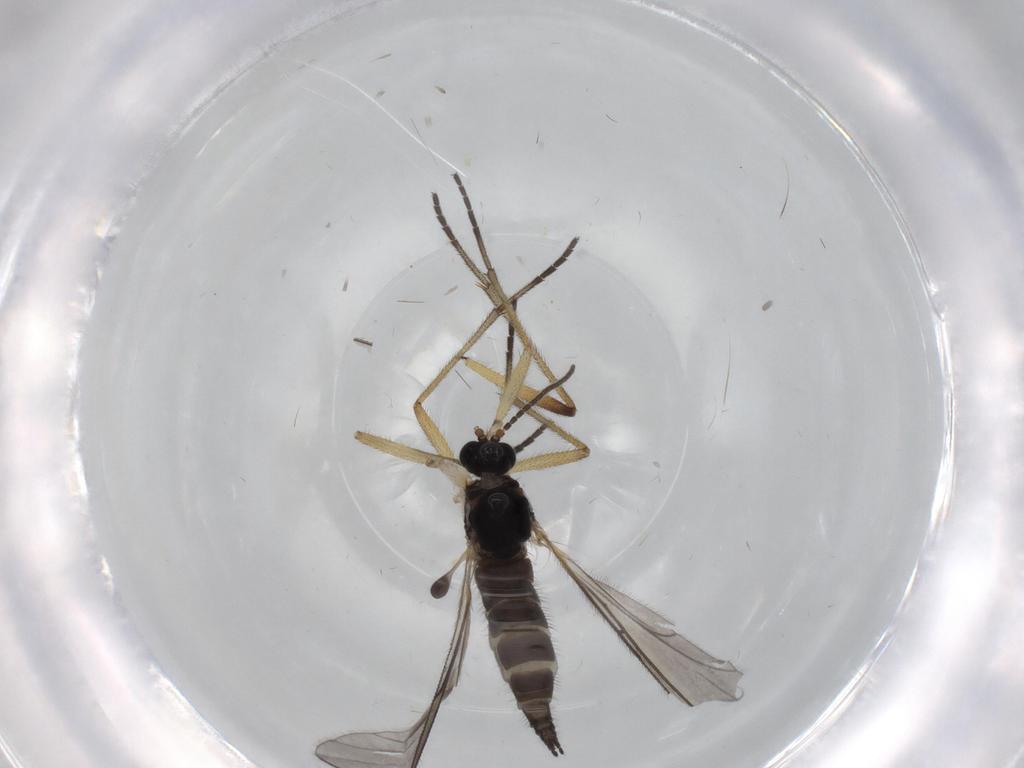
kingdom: Animalia
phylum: Arthropoda
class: Insecta
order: Diptera
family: Sciaridae
